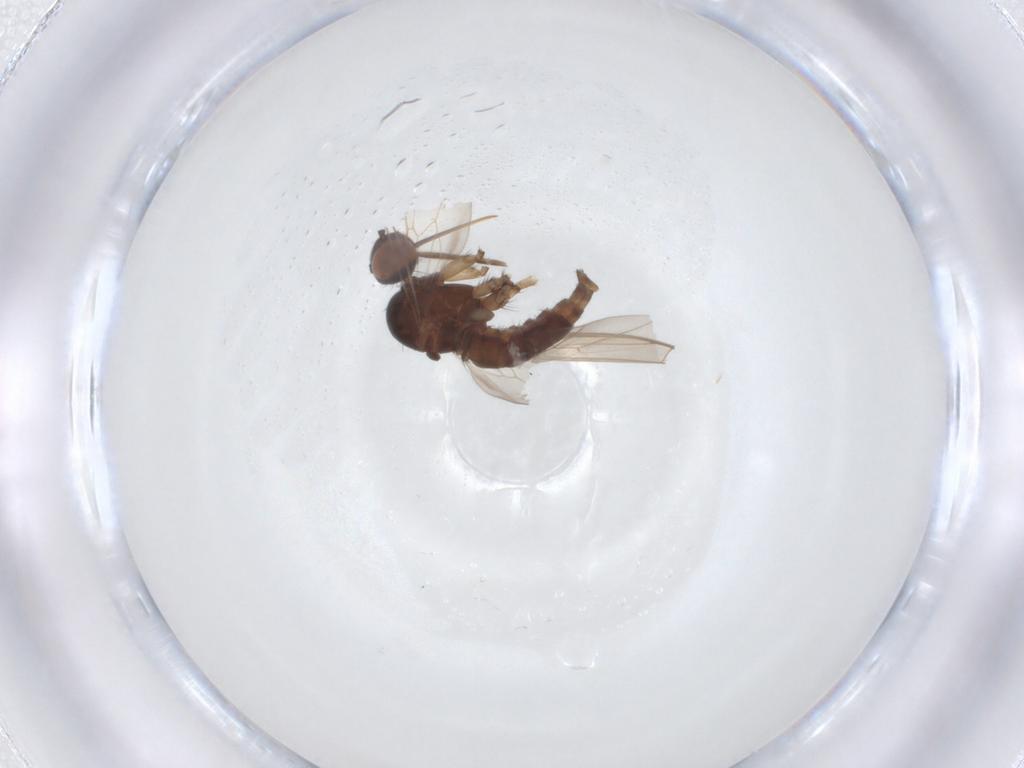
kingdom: Animalia
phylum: Arthropoda
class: Insecta
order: Diptera
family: Empididae
